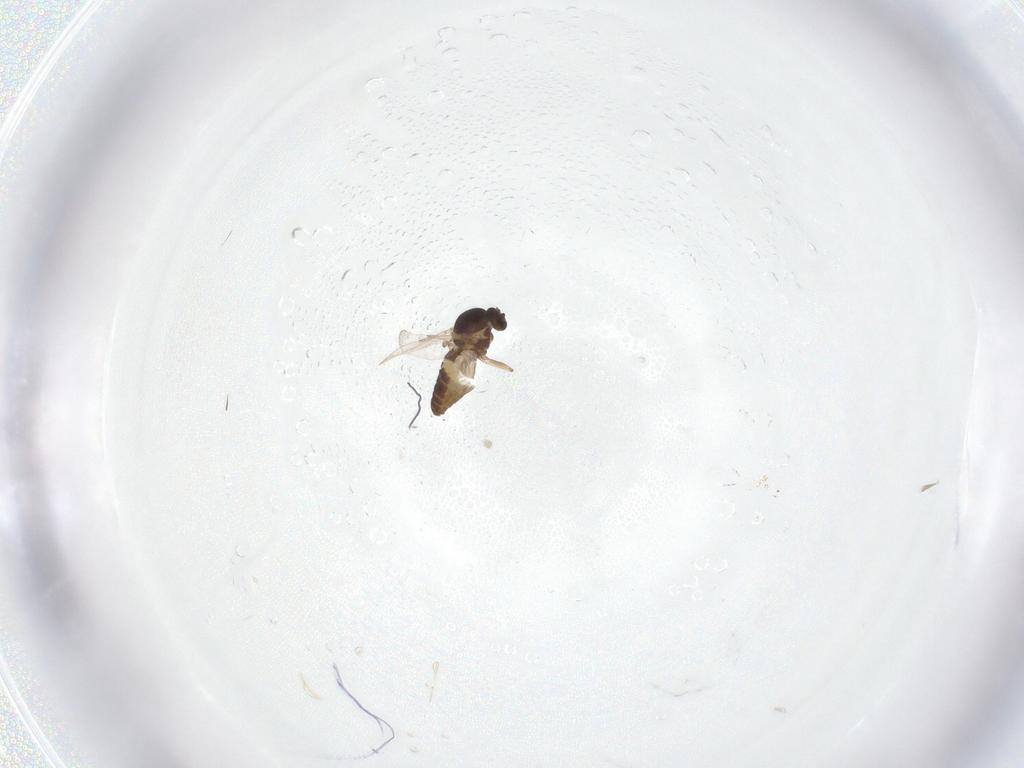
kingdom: Animalia
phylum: Arthropoda
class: Insecta
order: Diptera
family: Ceratopogonidae
